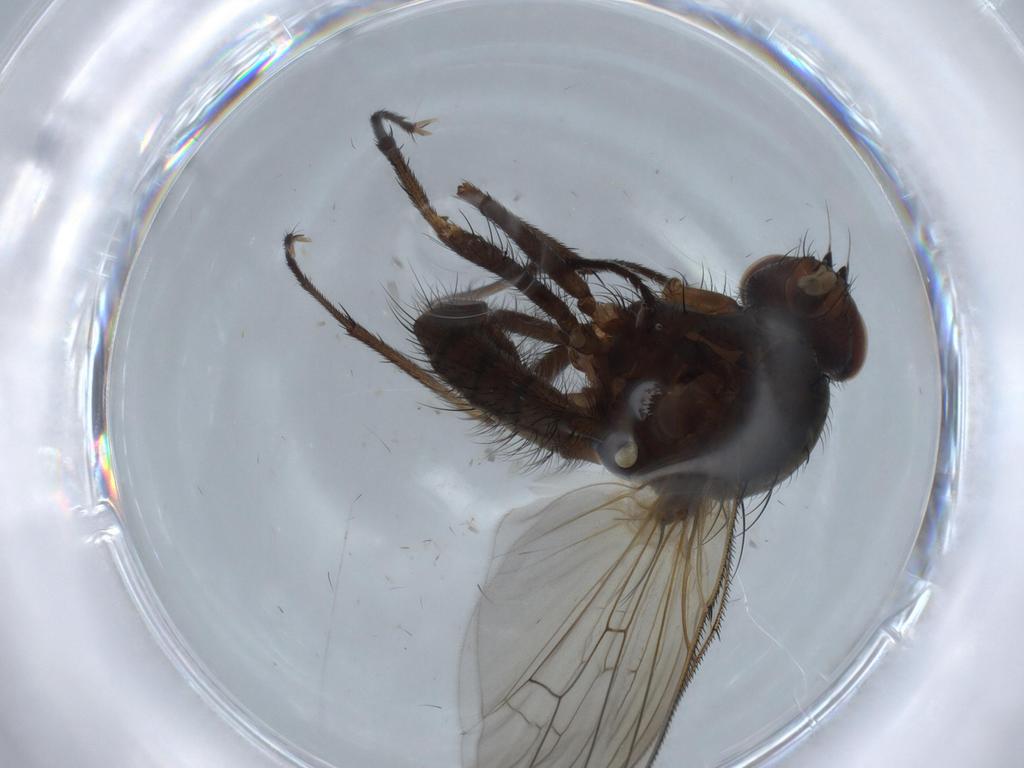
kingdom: Animalia
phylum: Arthropoda
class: Insecta
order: Diptera
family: Anthomyiidae
